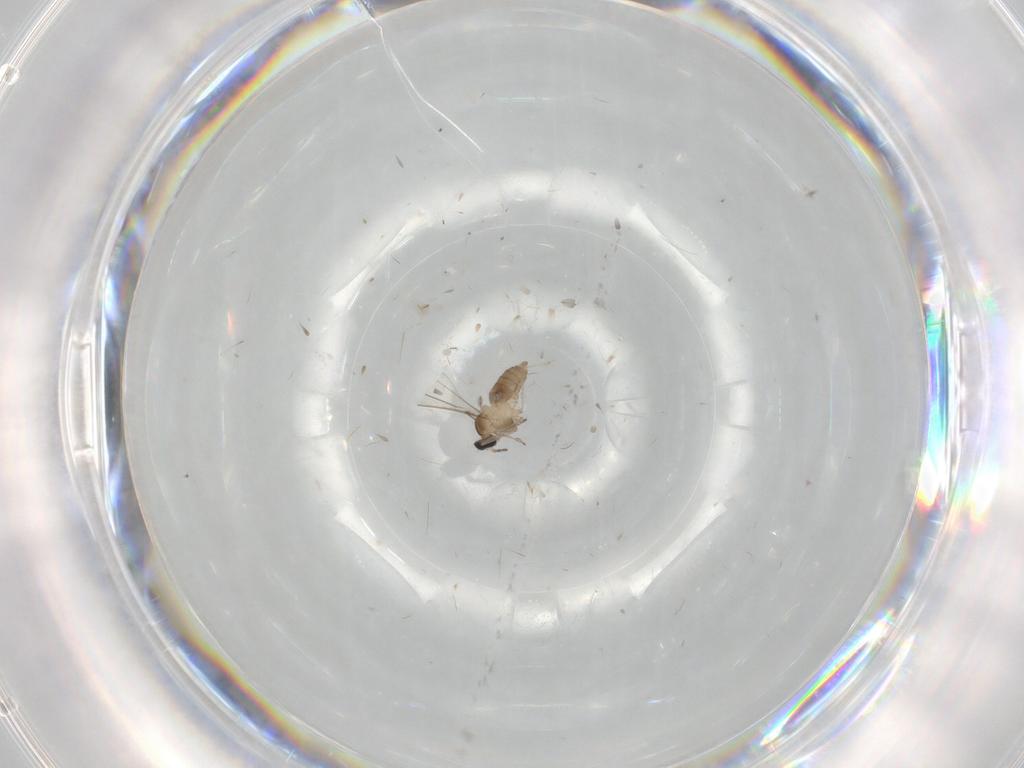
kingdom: Animalia
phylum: Arthropoda
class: Insecta
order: Diptera
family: Cecidomyiidae
